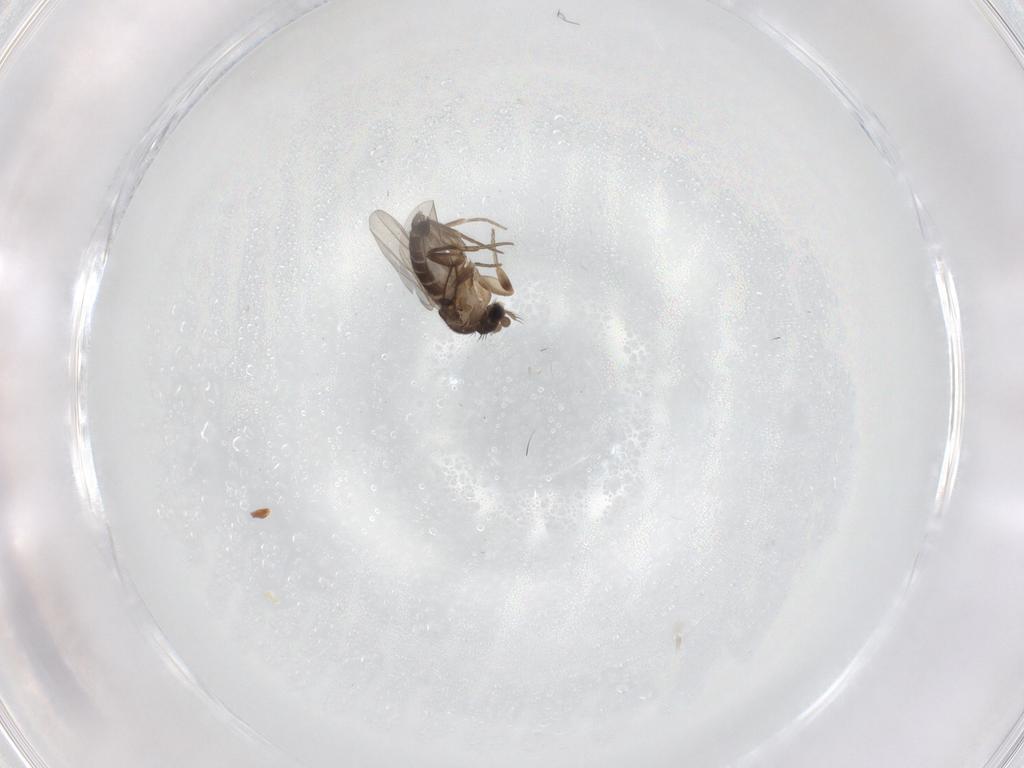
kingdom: Animalia
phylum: Arthropoda
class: Insecta
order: Diptera
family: Phoridae
